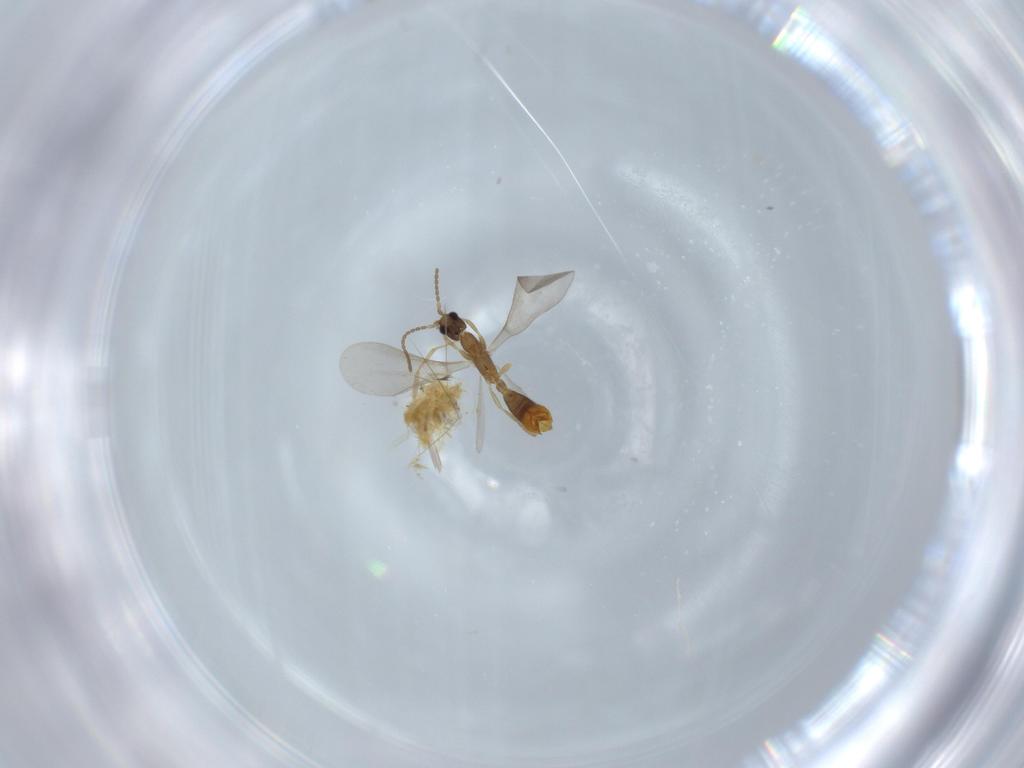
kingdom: Animalia
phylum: Arthropoda
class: Insecta
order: Hymenoptera
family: Formicidae
